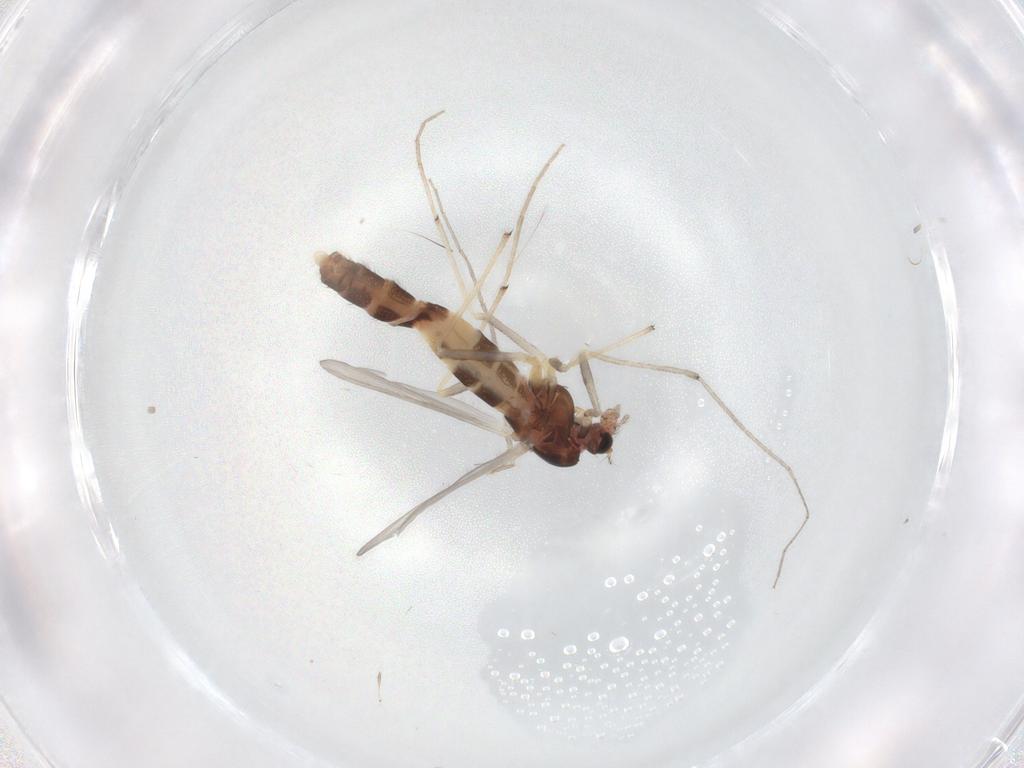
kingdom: Animalia
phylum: Arthropoda
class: Insecta
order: Diptera
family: Chironomidae
